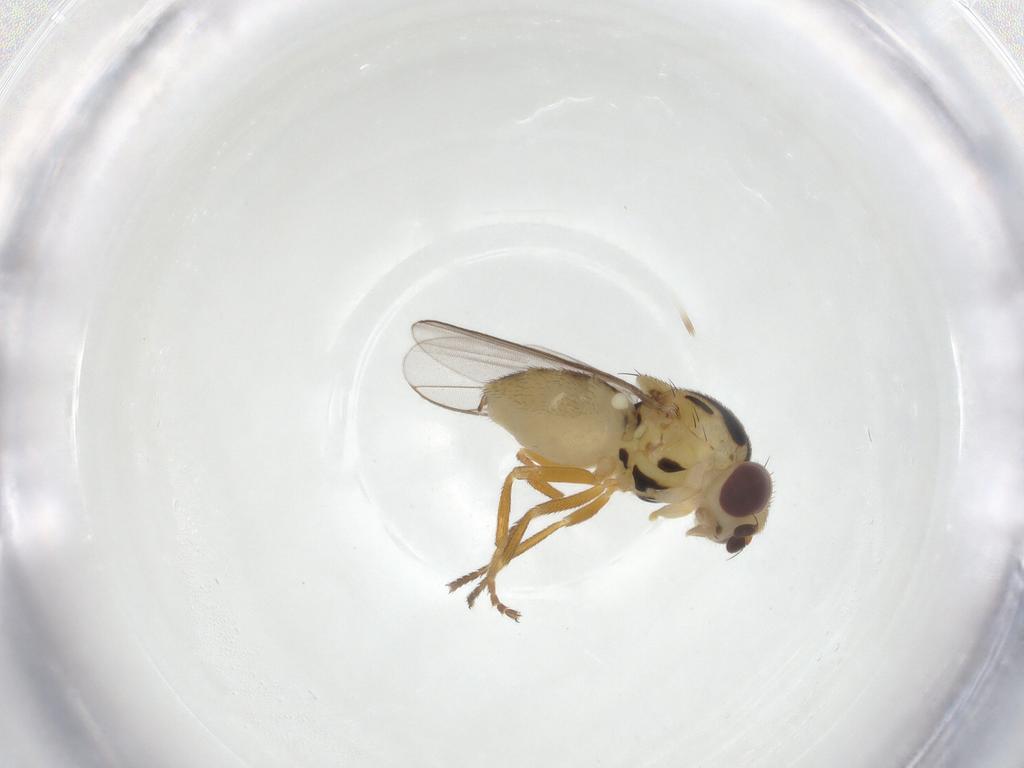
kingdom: Animalia
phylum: Arthropoda
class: Insecta
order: Diptera
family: Chloropidae
